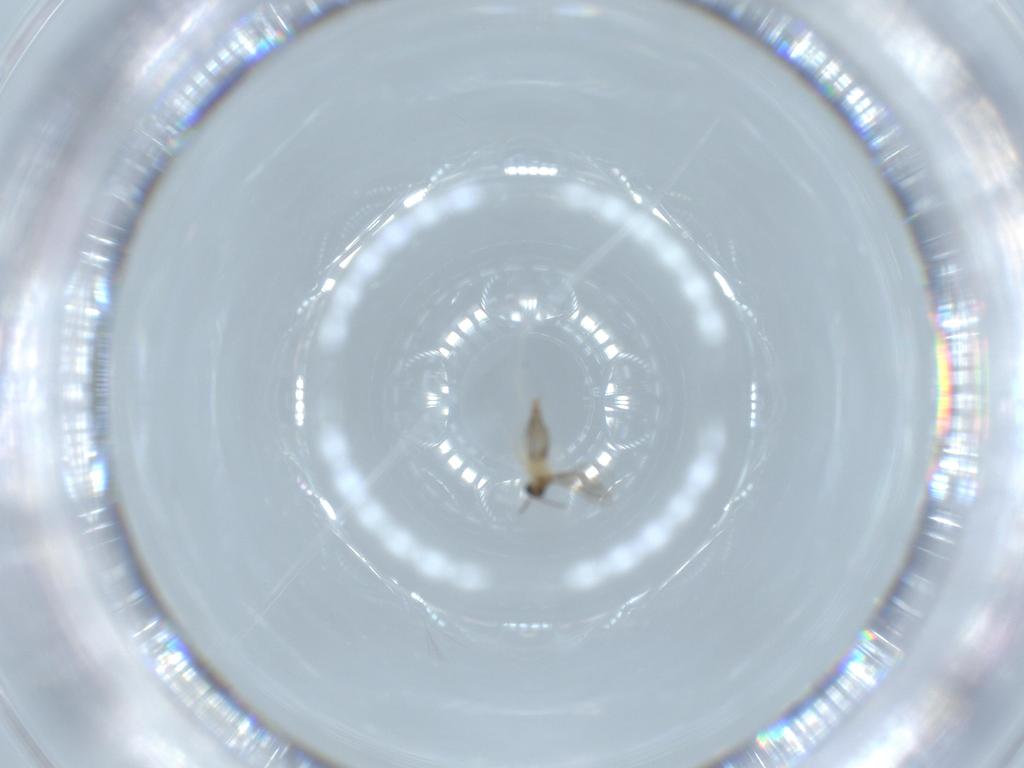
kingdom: Animalia
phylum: Arthropoda
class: Insecta
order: Diptera
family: Cecidomyiidae
